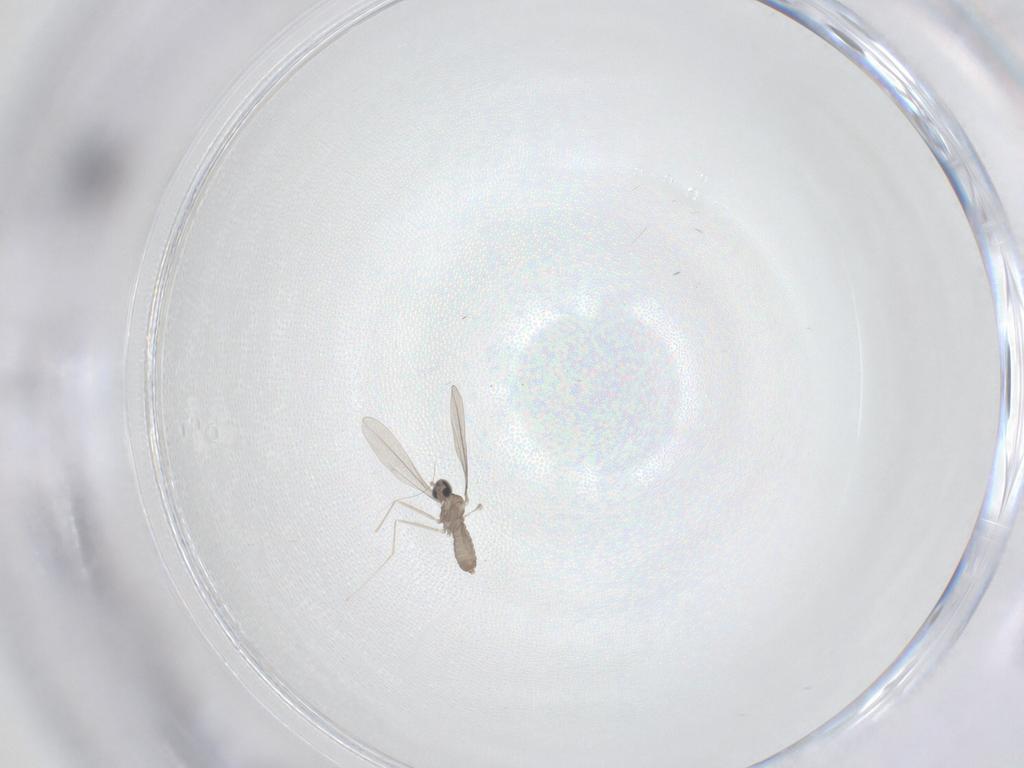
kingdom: Animalia
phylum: Arthropoda
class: Insecta
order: Diptera
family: Cecidomyiidae
